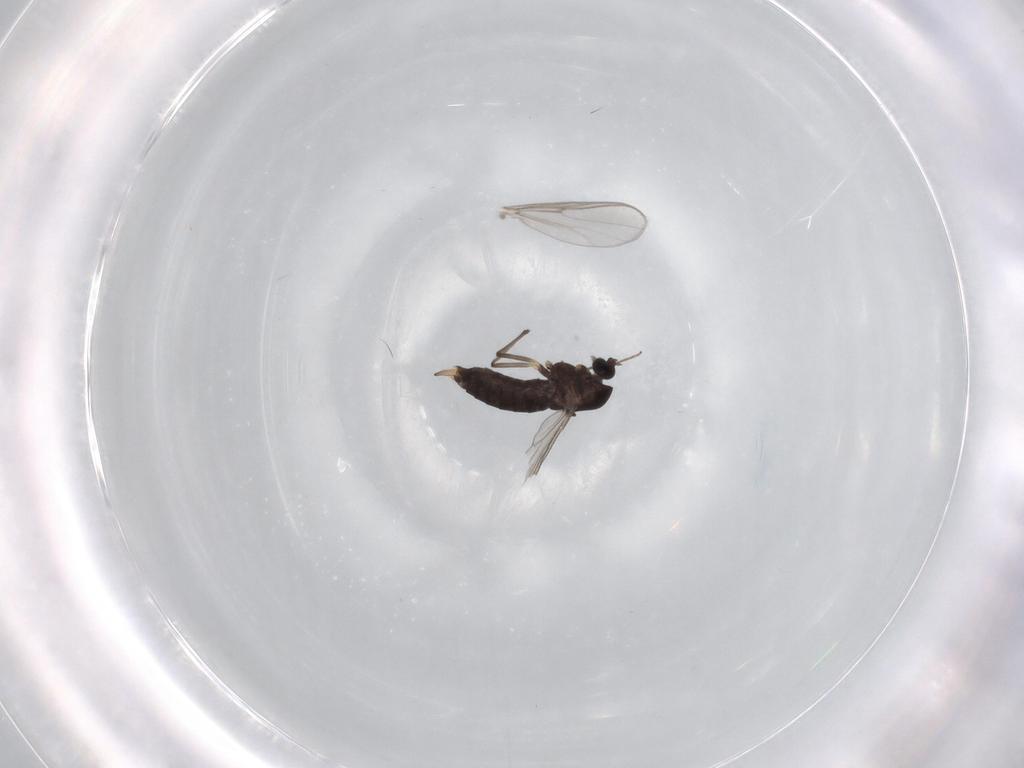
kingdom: Animalia
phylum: Arthropoda
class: Insecta
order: Diptera
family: Chironomidae
